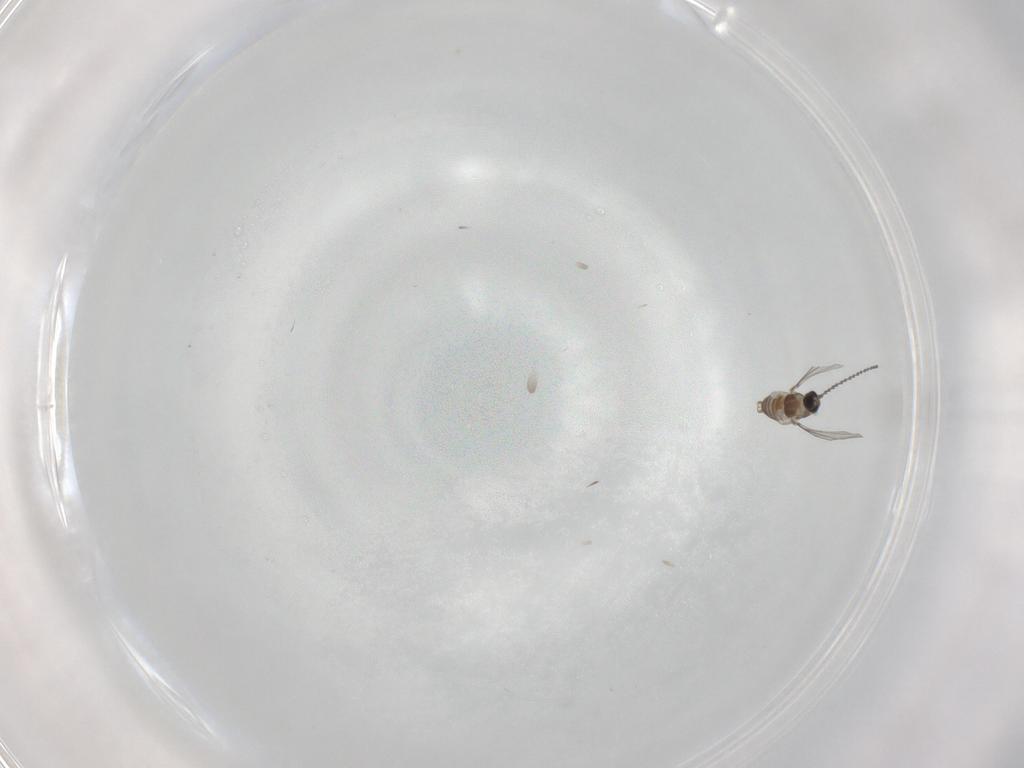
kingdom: Animalia
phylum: Arthropoda
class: Insecta
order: Diptera
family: Cecidomyiidae
